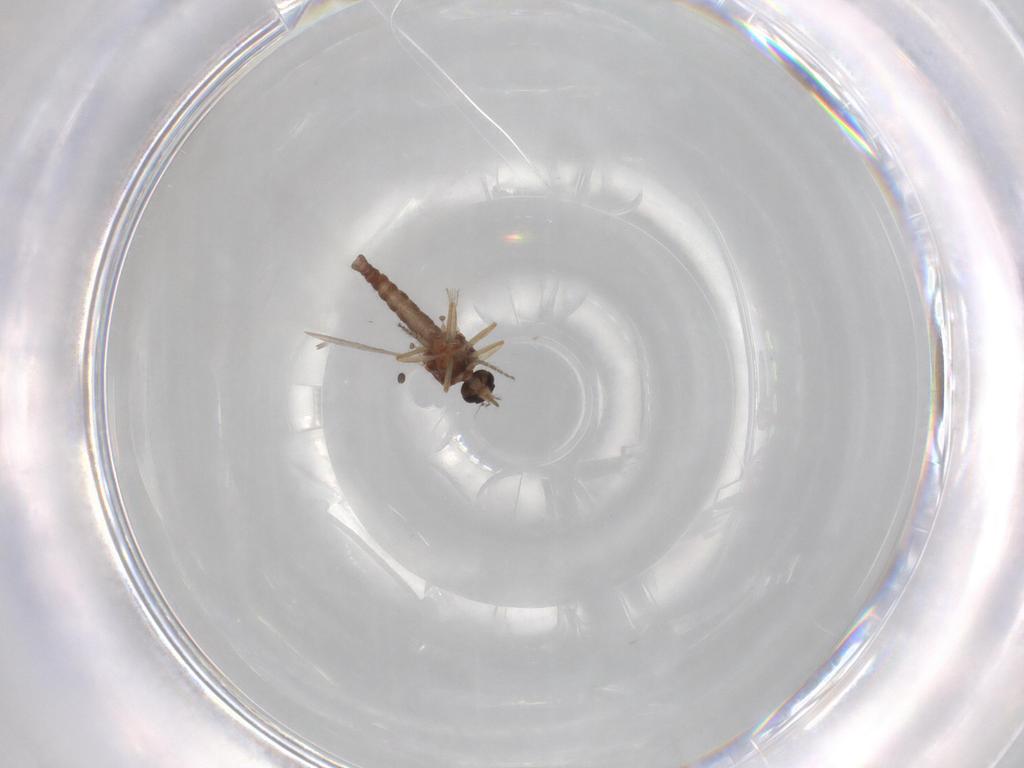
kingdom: Animalia
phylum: Arthropoda
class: Insecta
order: Diptera
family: Ceratopogonidae
